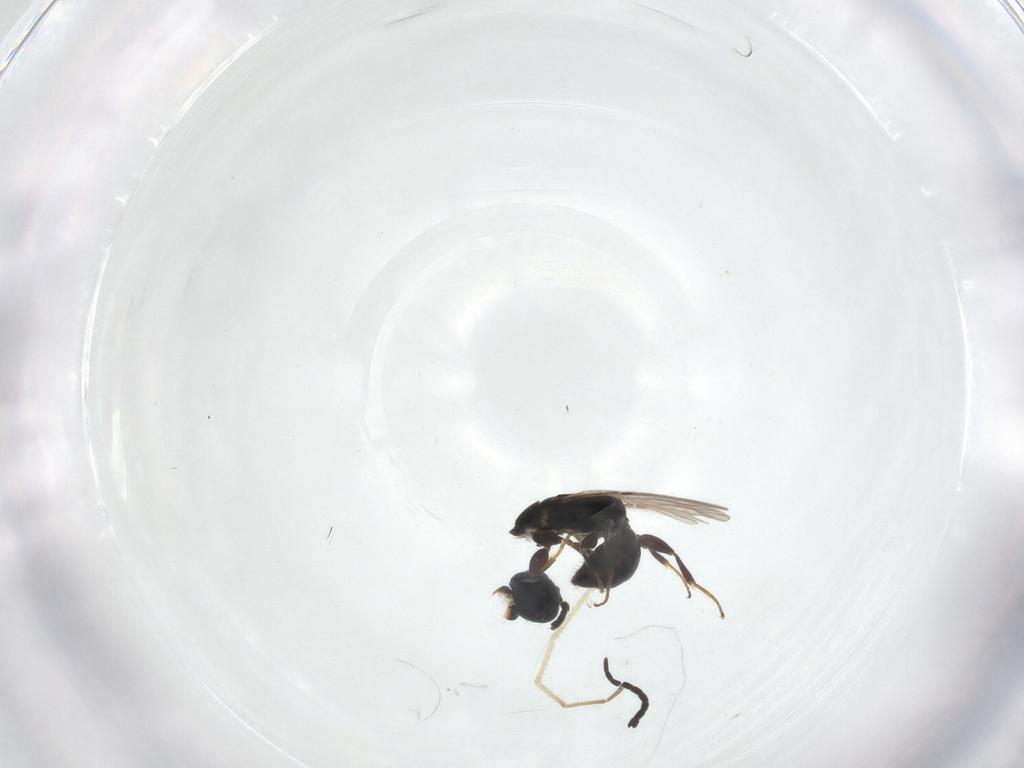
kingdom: Animalia
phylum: Arthropoda
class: Insecta
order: Hymenoptera
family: Bethylidae
